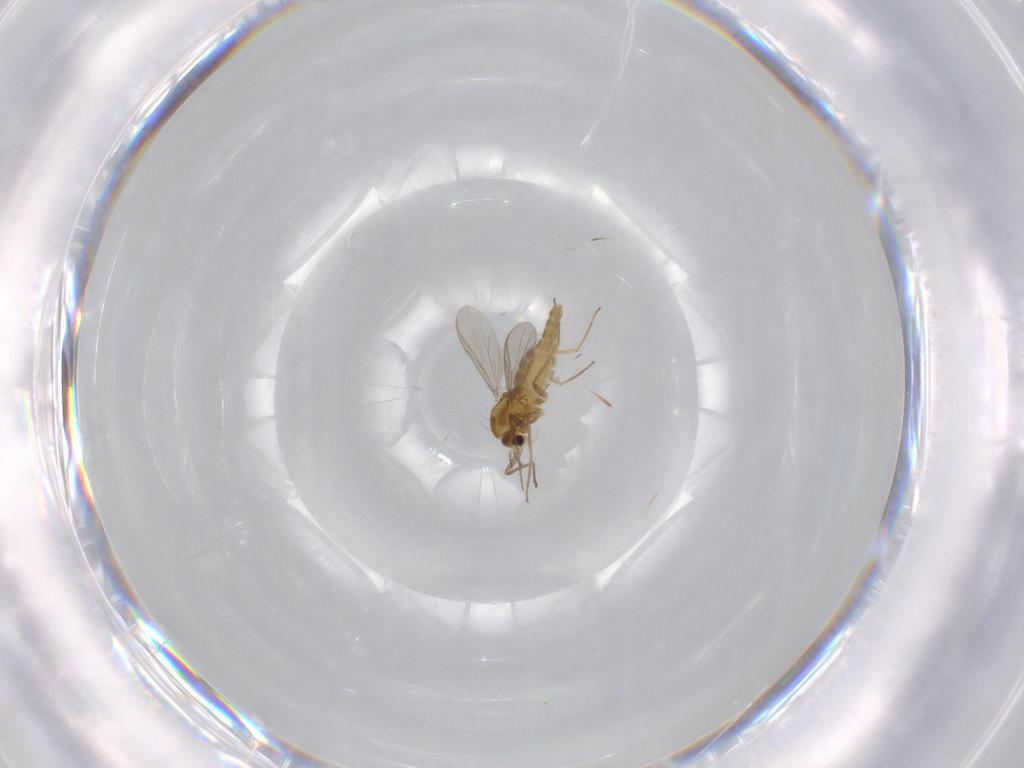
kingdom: Animalia
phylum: Arthropoda
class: Insecta
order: Diptera
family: Chironomidae
